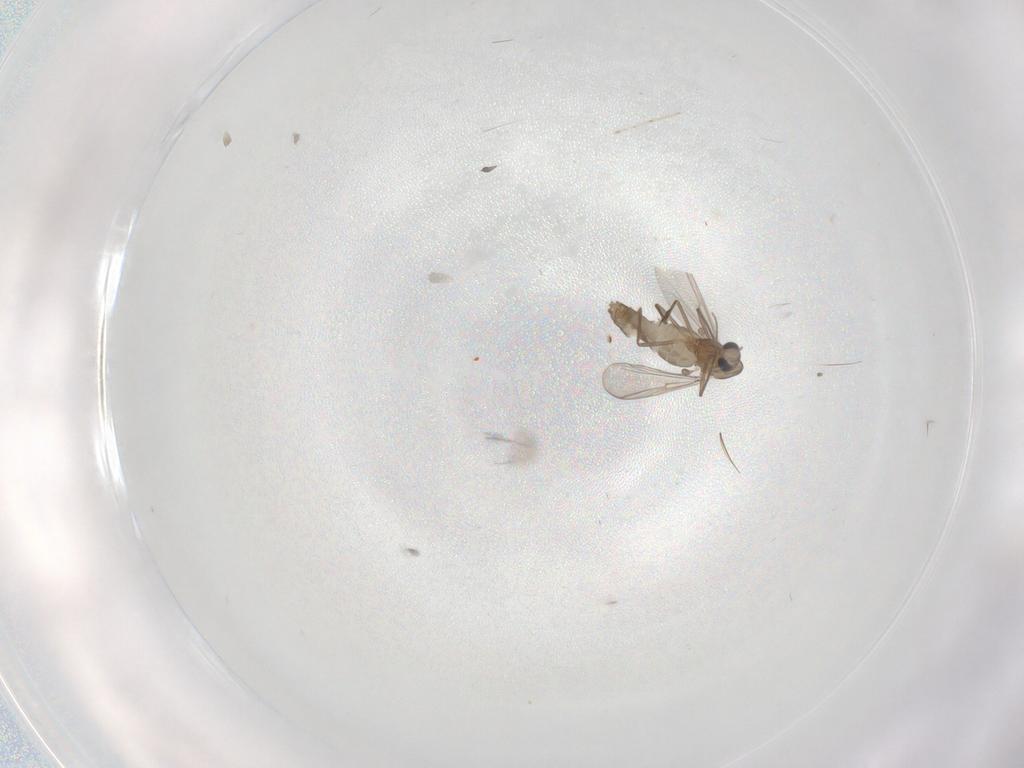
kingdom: Animalia
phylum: Arthropoda
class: Insecta
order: Diptera
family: Chironomidae
